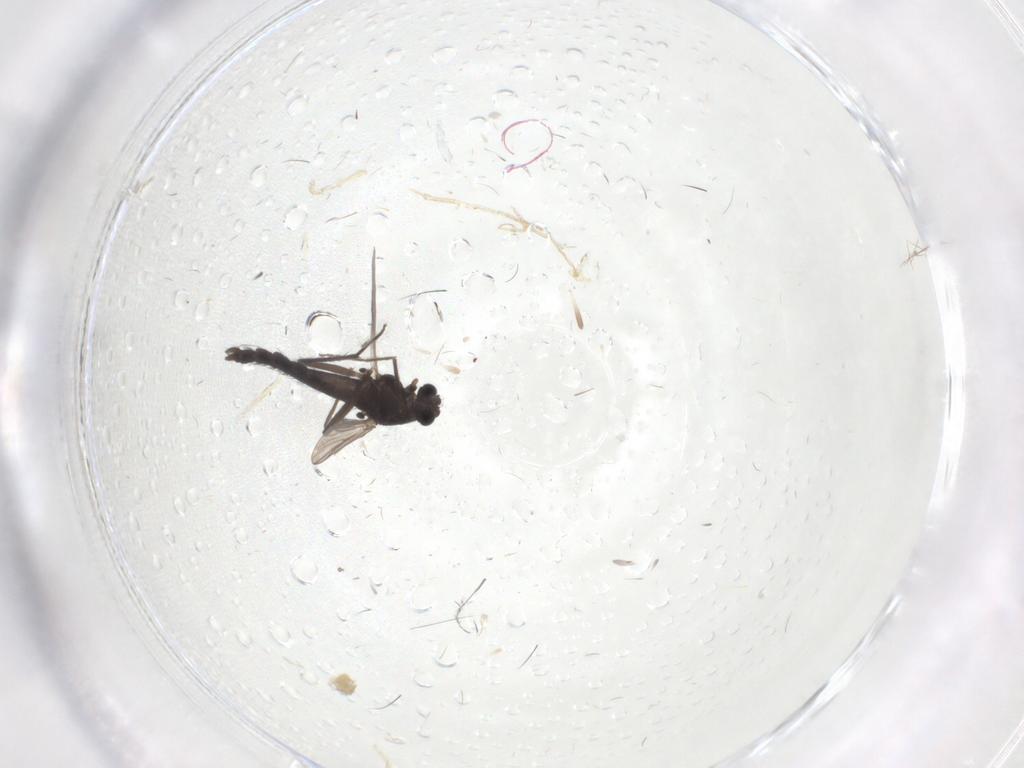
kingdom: Animalia
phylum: Arthropoda
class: Insecta
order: Diptera
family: Chironomidae
